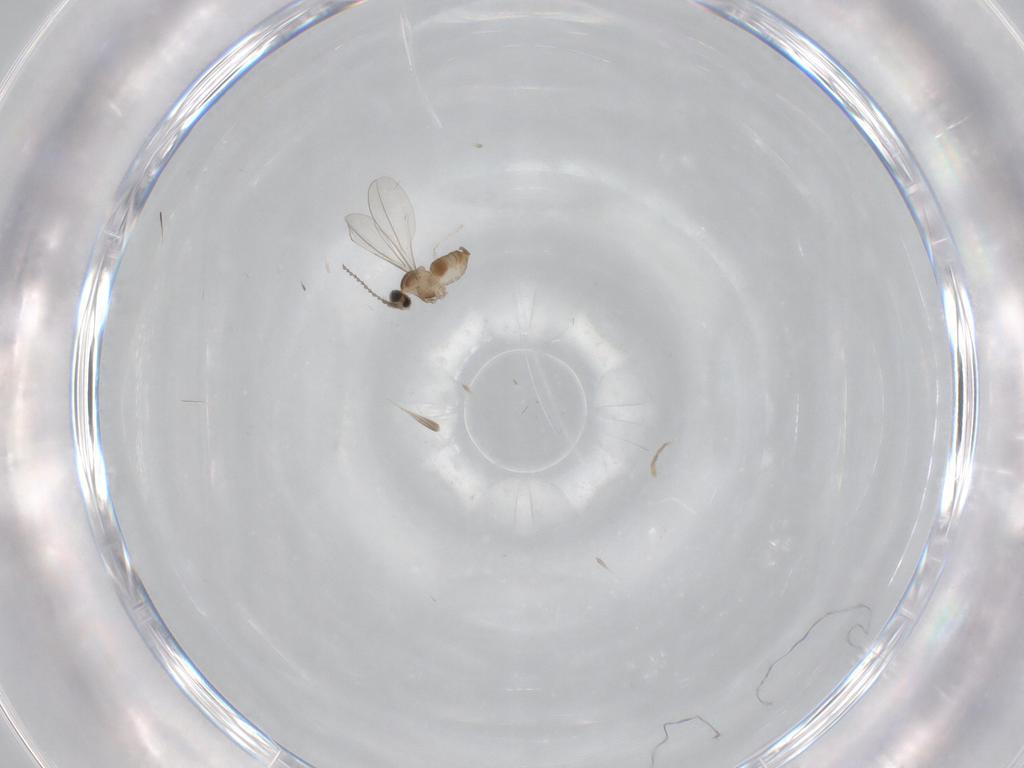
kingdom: Animalia
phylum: Arthropoda
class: Insecta
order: Diptera
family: Cecidomyiidae
